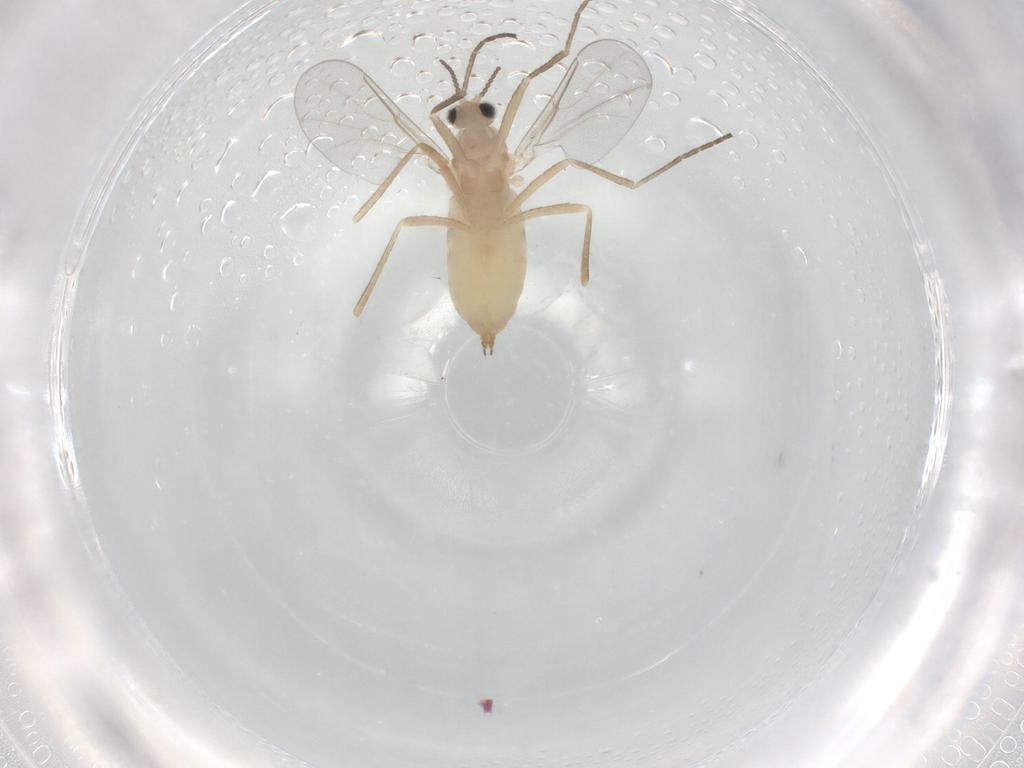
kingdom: Animalia
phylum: Arthropoda
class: Insecta
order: Diptera
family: Cecidomyiidae
